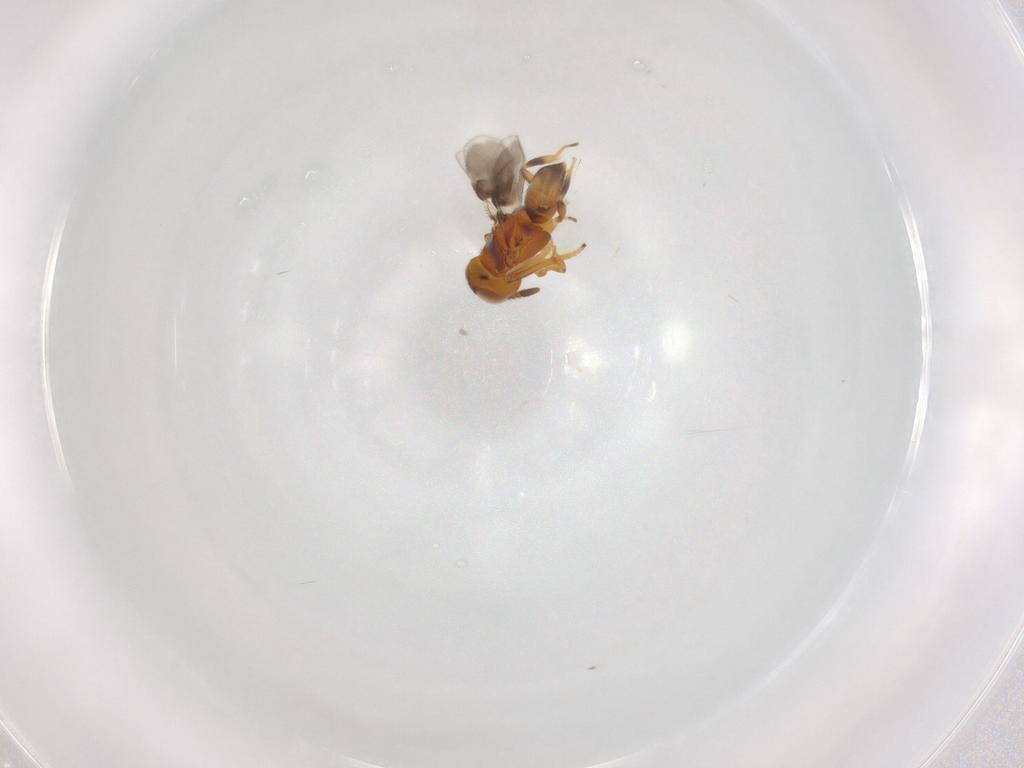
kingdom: Animalia
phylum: Arthropoda
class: Insecta
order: Hymenoptera
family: Encyrtidae
